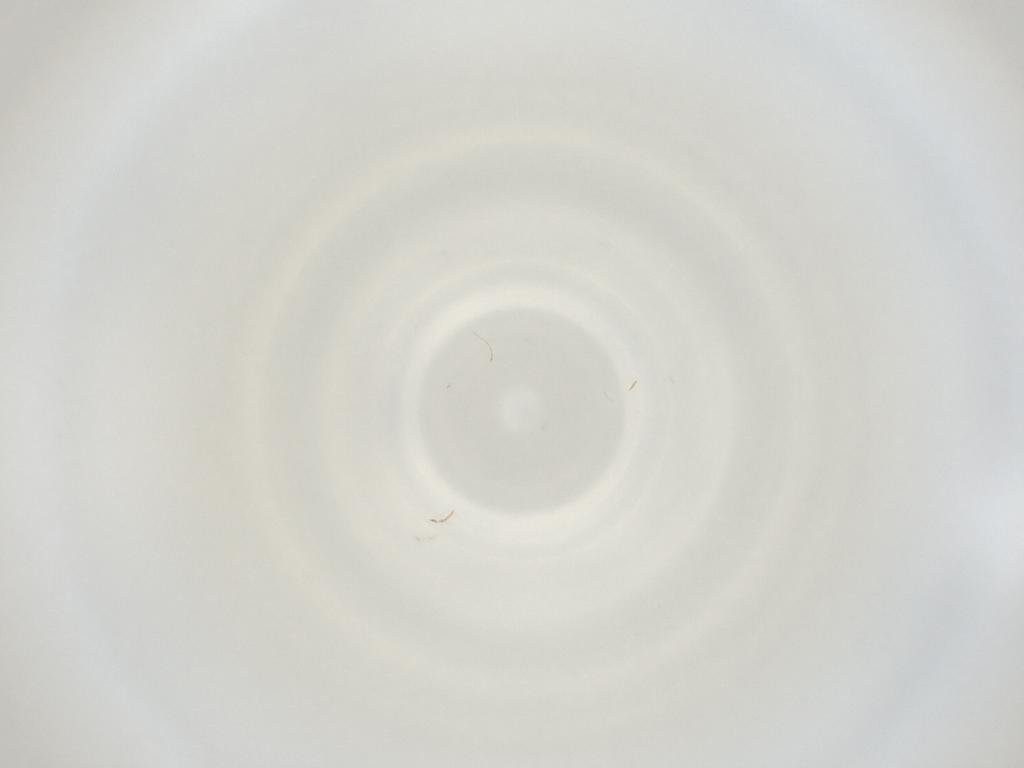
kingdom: Animalia
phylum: Arthropoda
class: Insecta
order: Diptera
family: Cecidomyiidae
